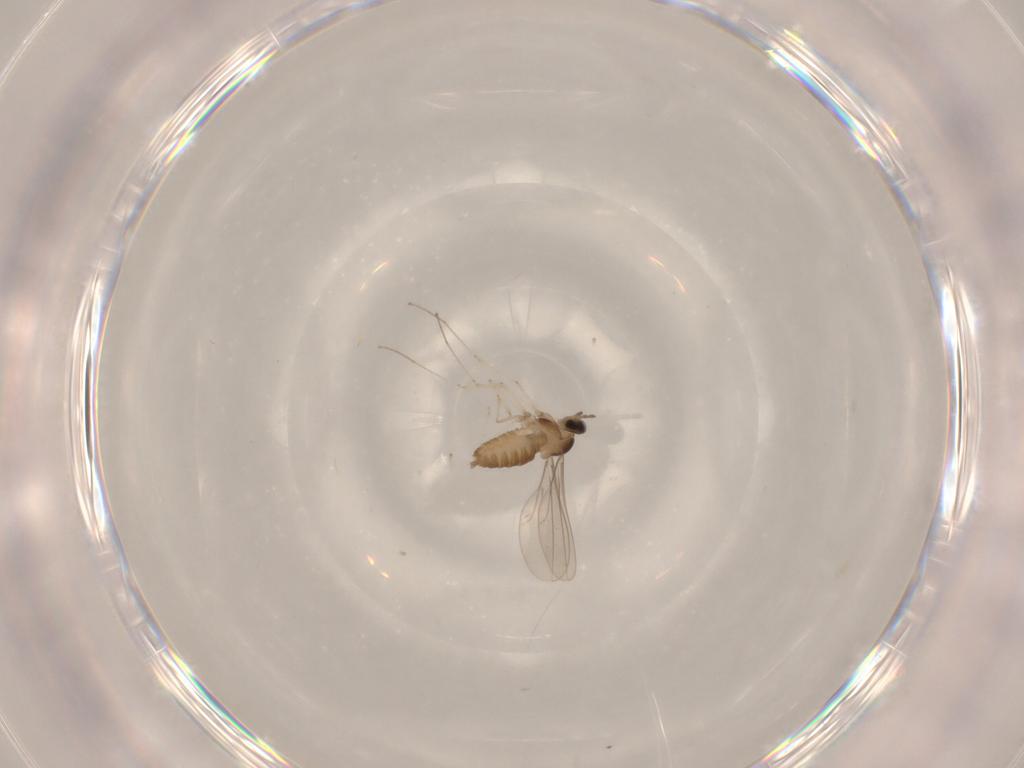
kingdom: Animalia
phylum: Arthropoda
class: Insecta
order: Diptera
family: Cecidomyiidae
